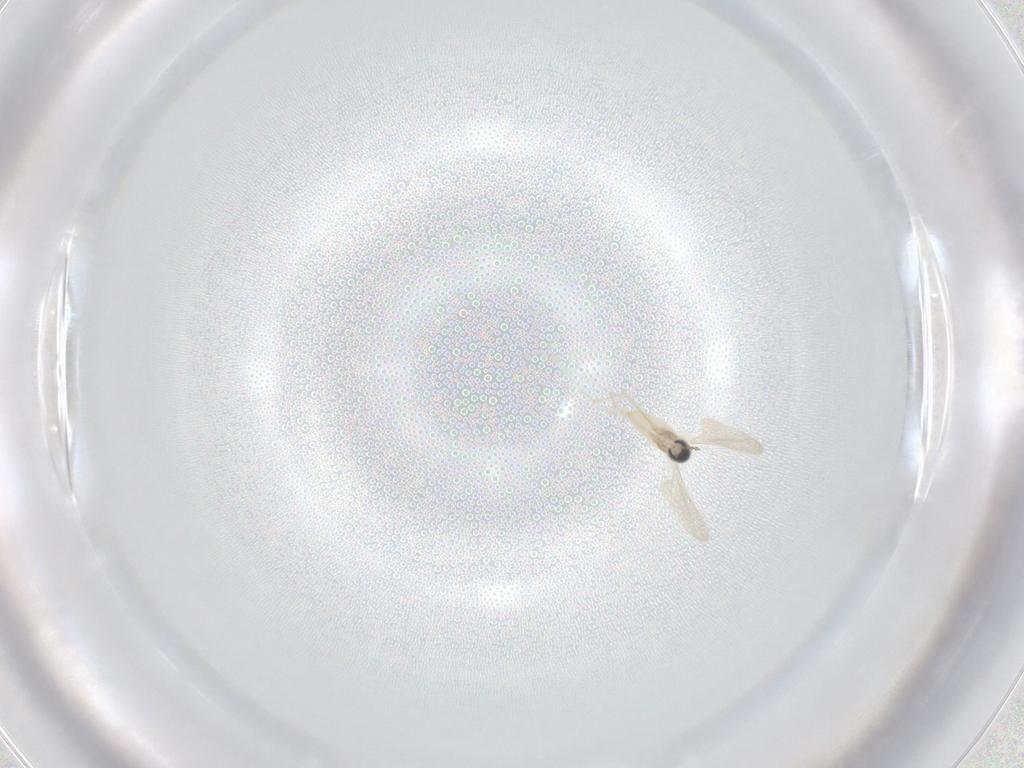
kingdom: Animalia
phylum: Arthropoda
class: Insecta
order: Diptera
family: Cecidomyiidae
